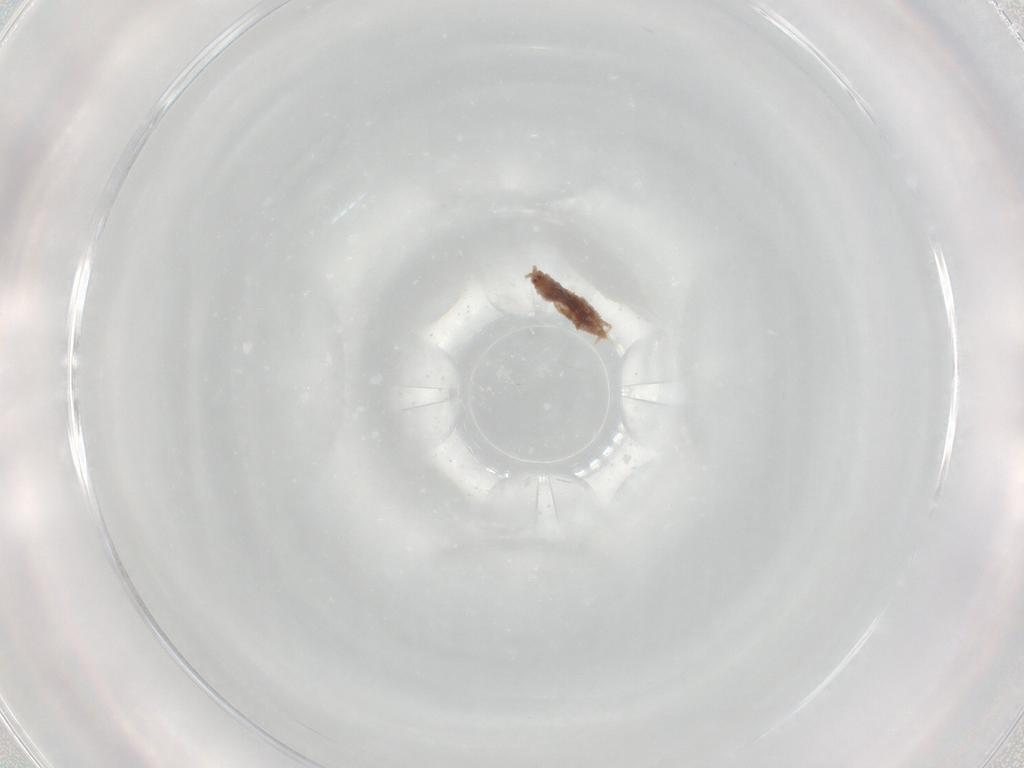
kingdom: Animalia
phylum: Arthropoda
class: Insecta
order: Hemiptera
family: Diaspididae
